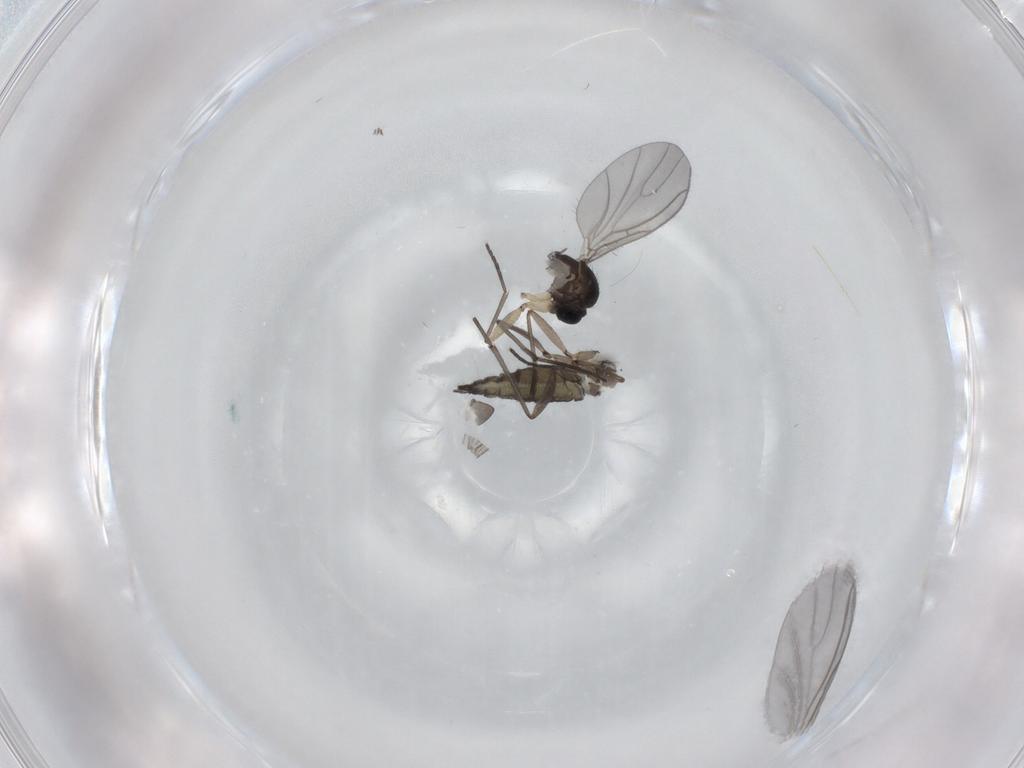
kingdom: Animalia
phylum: Arthropoda
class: Insecta
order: Diptera
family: Sciaridae
